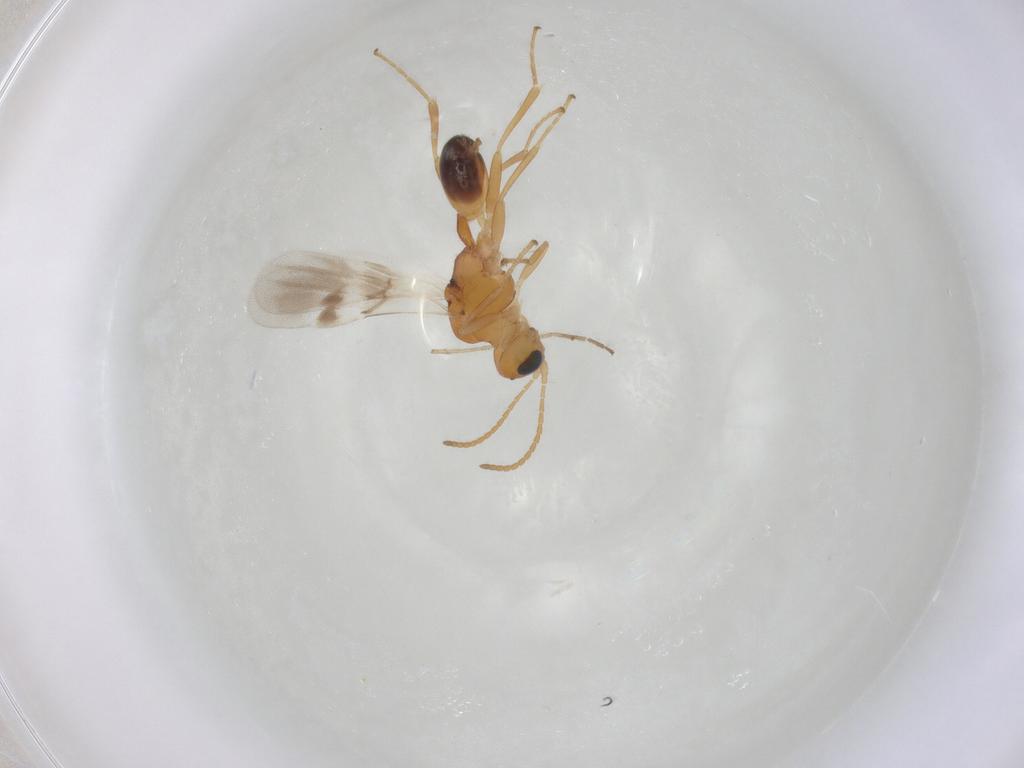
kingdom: Animalia
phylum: Arthropoda
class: Insecta
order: Hymenoptera
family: Braconidae
